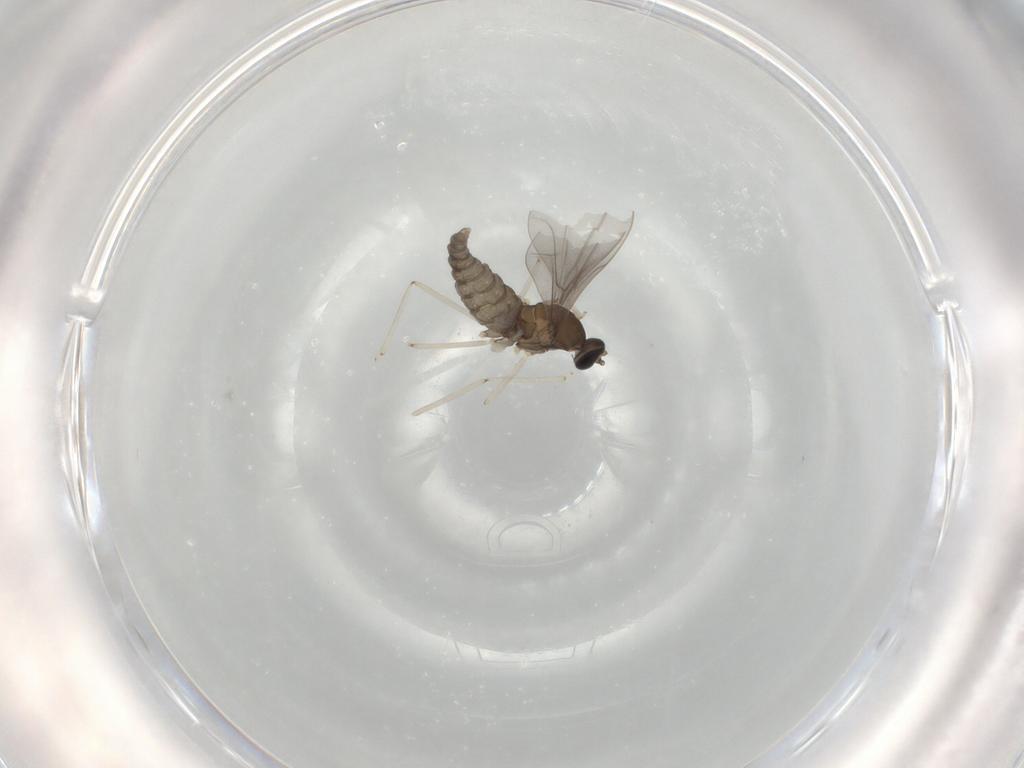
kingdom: Animalia
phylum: Arthropoda
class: Insecta
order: Diptera
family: Cecidomyiidae
